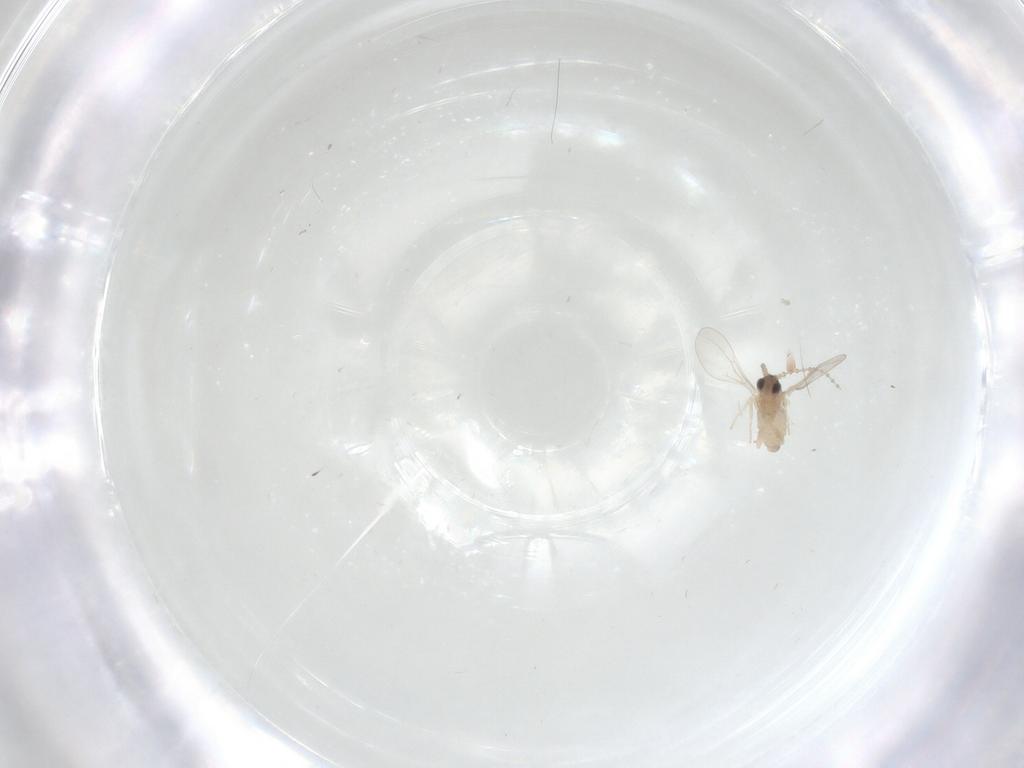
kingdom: Animalia
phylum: Arthropoda
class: Insecta
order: Diptera
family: Cecidomyiidae
